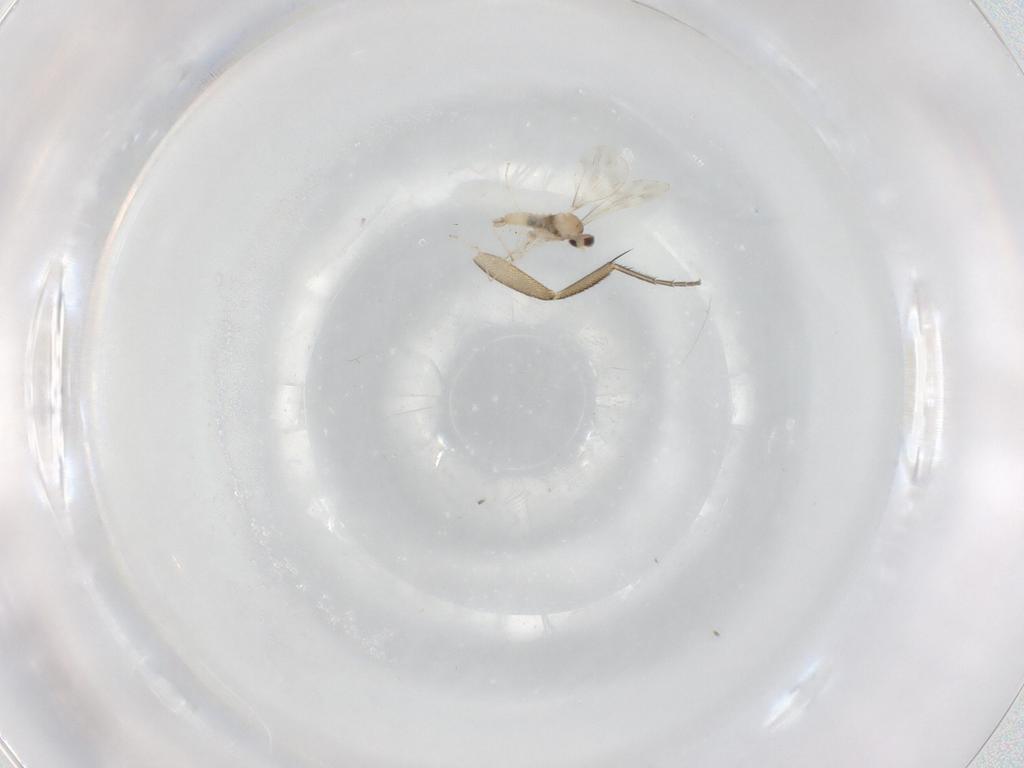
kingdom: Animalia
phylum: Arthropoda
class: Insecta
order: Diptera
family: Phoridae
